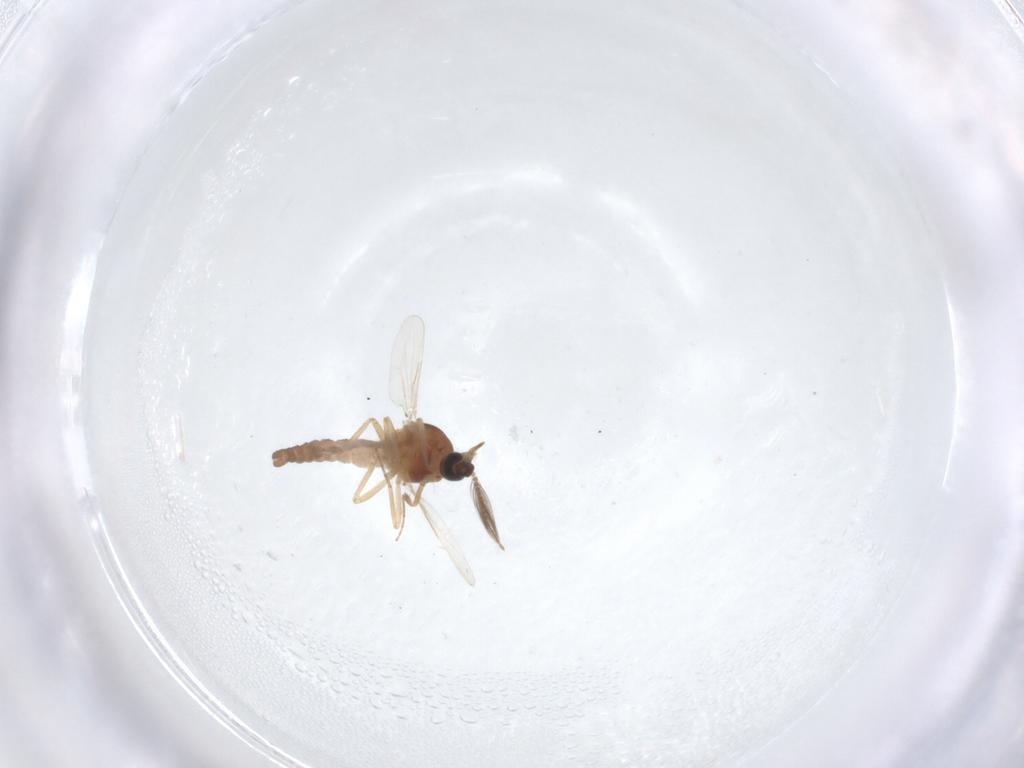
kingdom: Animalia
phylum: Arthropoda
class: Insecta
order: Diptera
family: Ceratopogonidae
